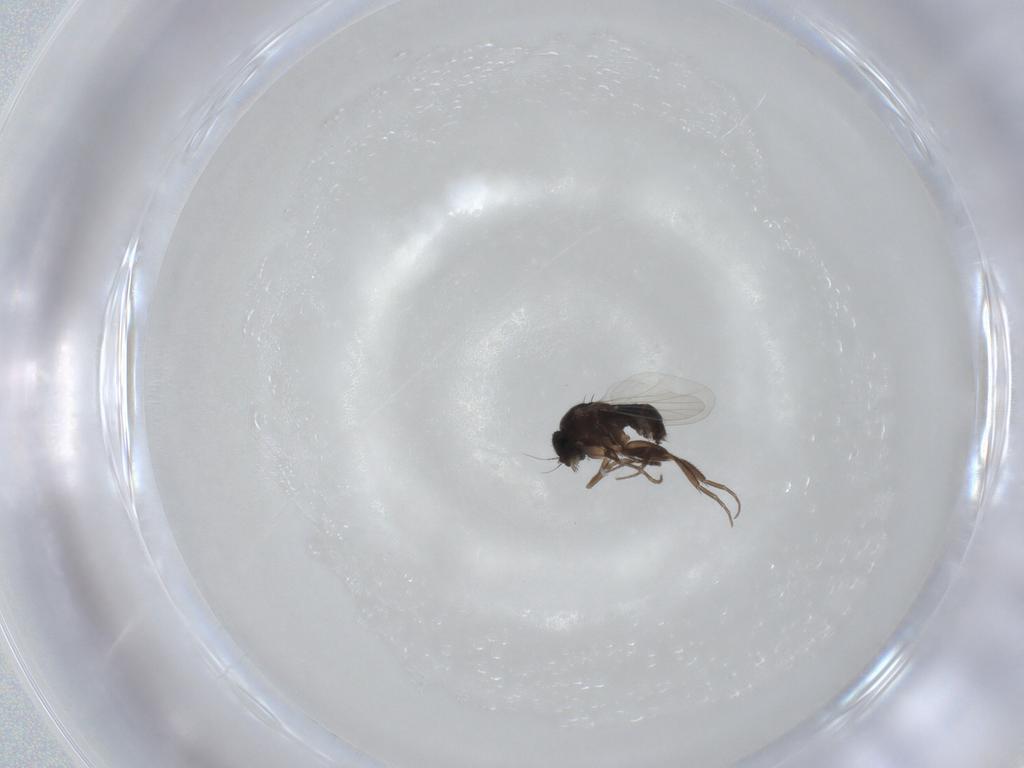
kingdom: Animalia
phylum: Arthropoda
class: Insecta
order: Diptera
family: Phoridae
